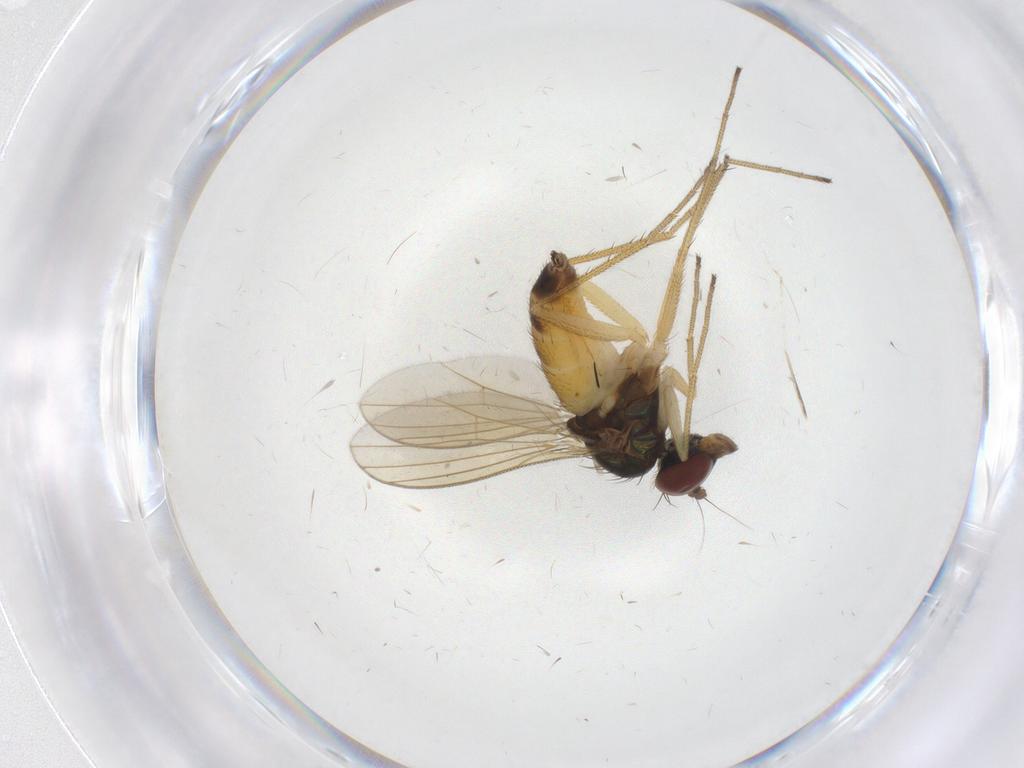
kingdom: Animalia
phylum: Arthropoda
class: Insecta
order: Diptera
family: Dolichopodidae
